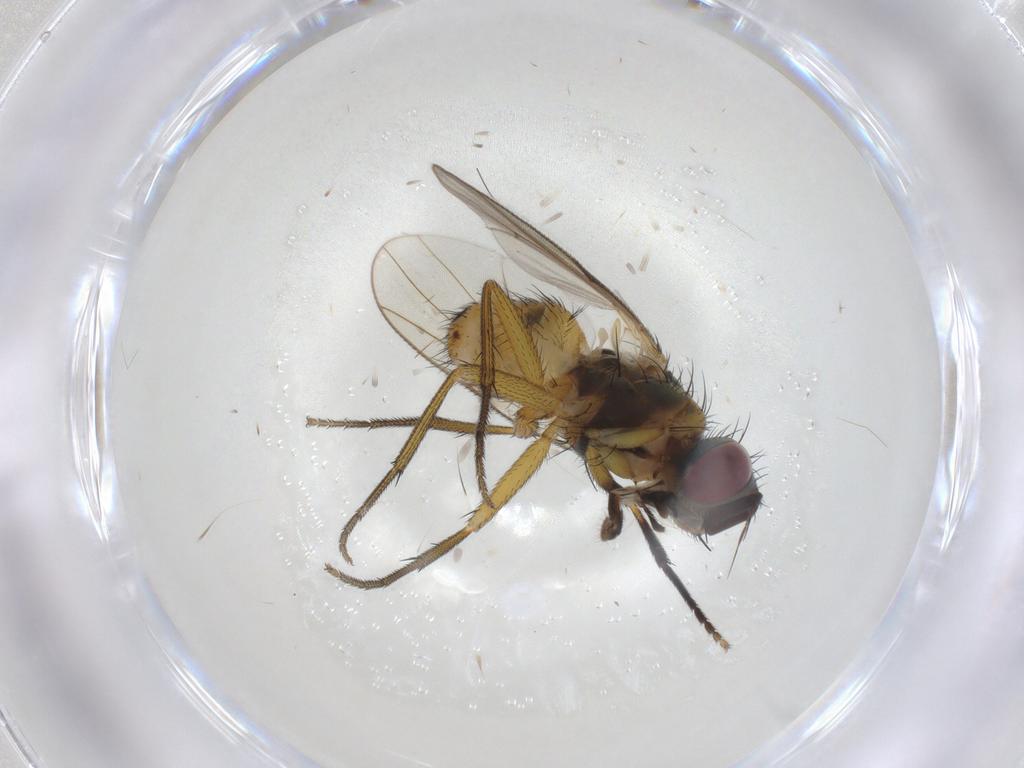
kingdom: Animalia
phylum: Arthropoda
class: Insecta
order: Diptera
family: Muscidae
